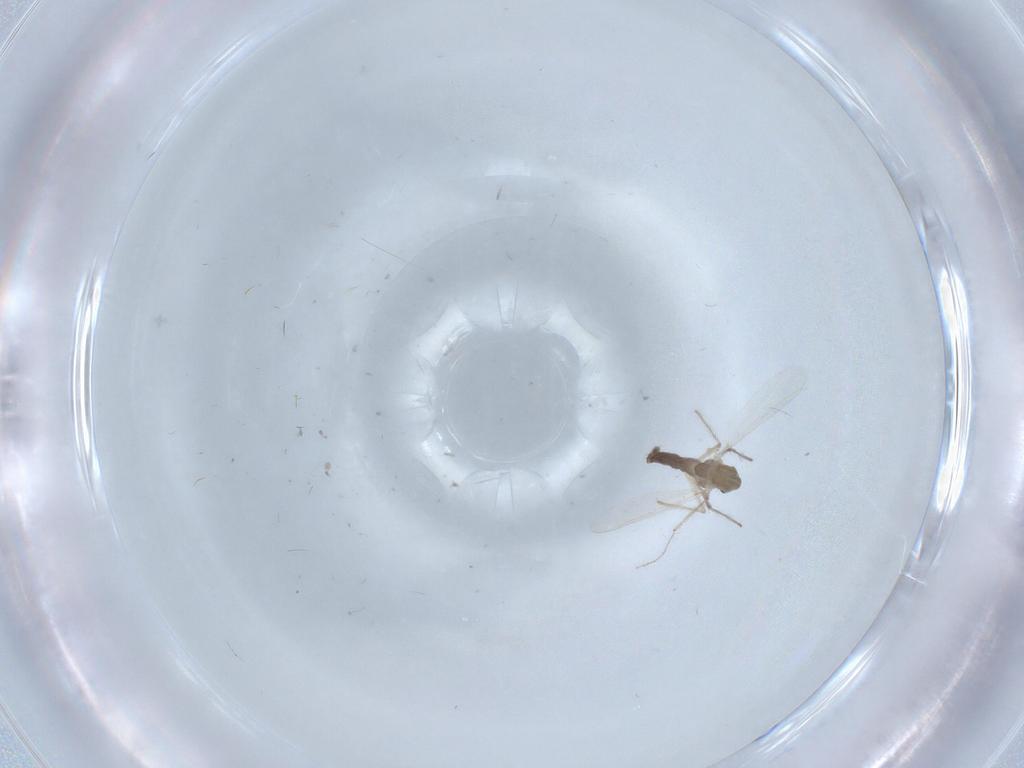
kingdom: Animalia
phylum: Arthropoda
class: Insecta
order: Diptera
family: Chironomidae
